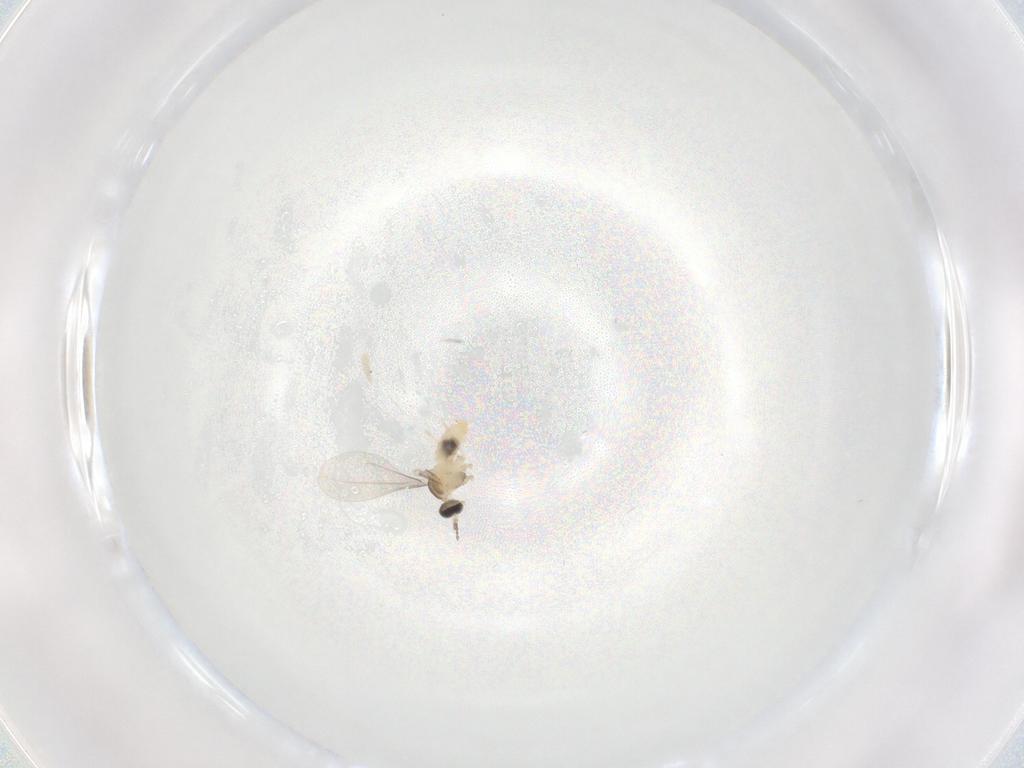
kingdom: Animalia
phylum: Arthropoda
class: Insecta
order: Diptera
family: Cecidomyiidae
